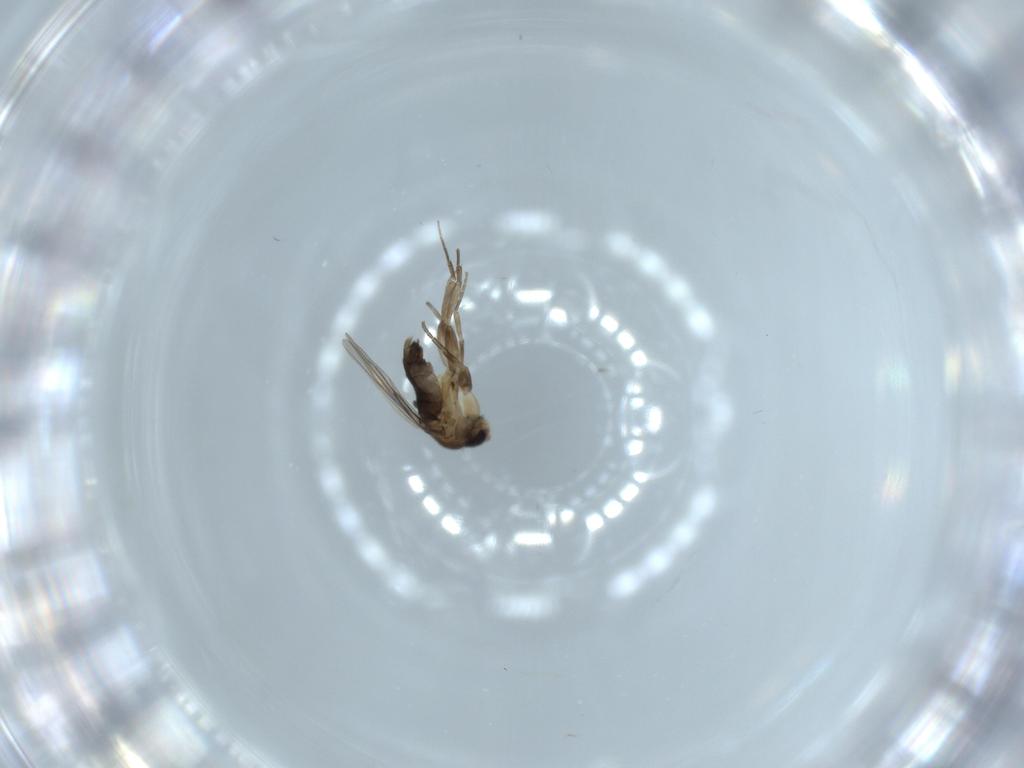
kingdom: Animalia
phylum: Arthropoda
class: Insecta
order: Diptera
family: Phoridae
